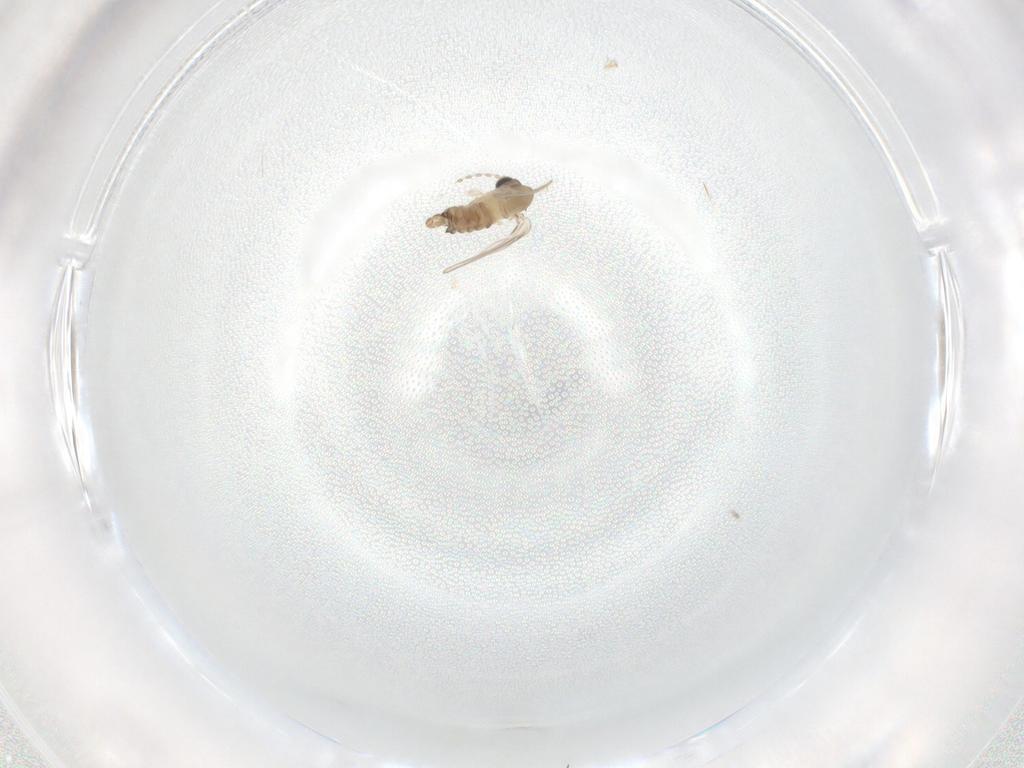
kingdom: Animalia
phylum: Arthropoda
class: Insecta
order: Diptera
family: Psychodidae
